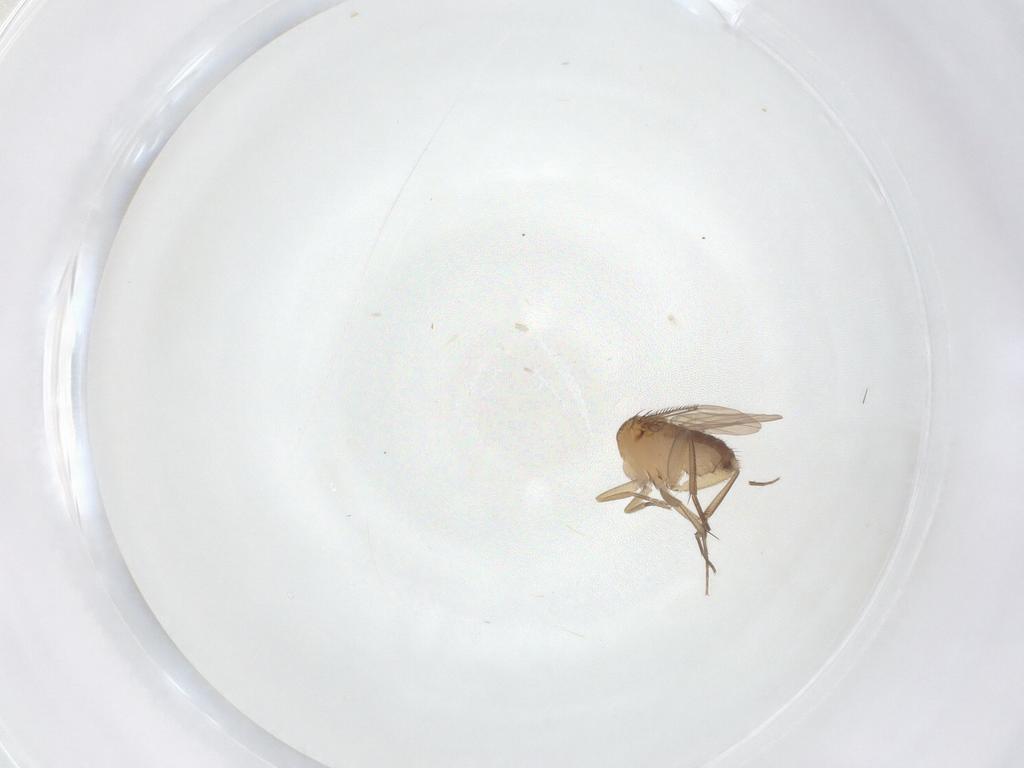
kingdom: Animalia
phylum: Arthropoda
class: Insecta
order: Diptera
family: Phoridae
